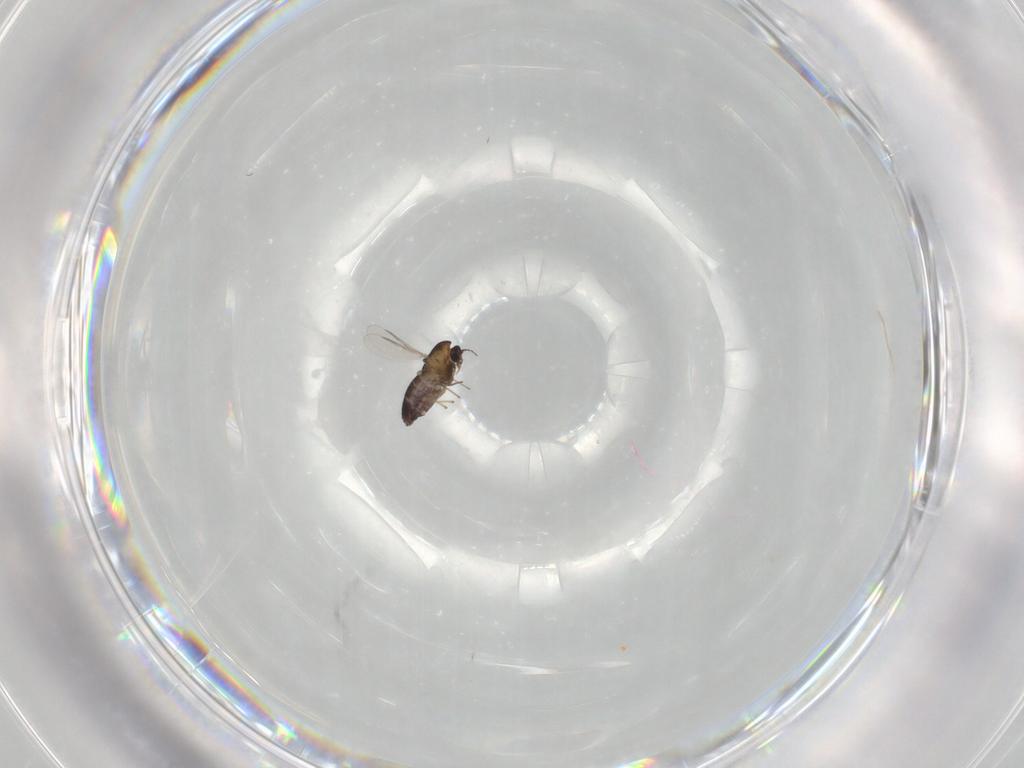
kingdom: Animalia
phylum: Arthropoda
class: Insecta
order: Diptera
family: Chironomidae
